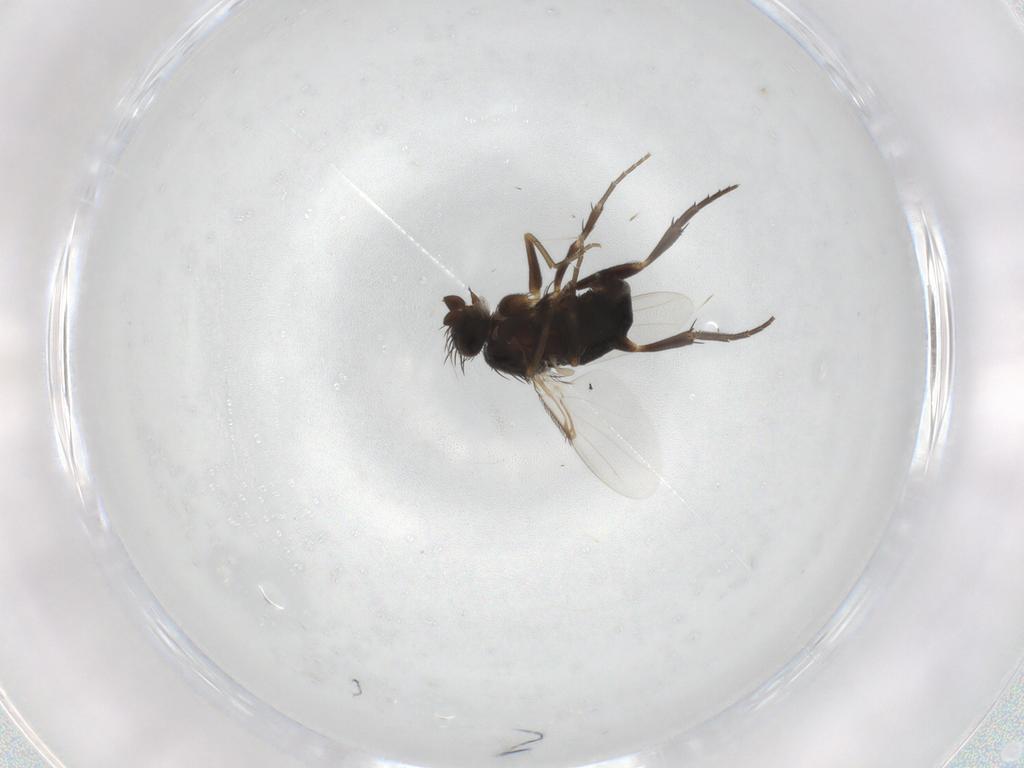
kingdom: Animalia
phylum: Arthropoda
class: Insecta
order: Diptera
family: Phoridae
